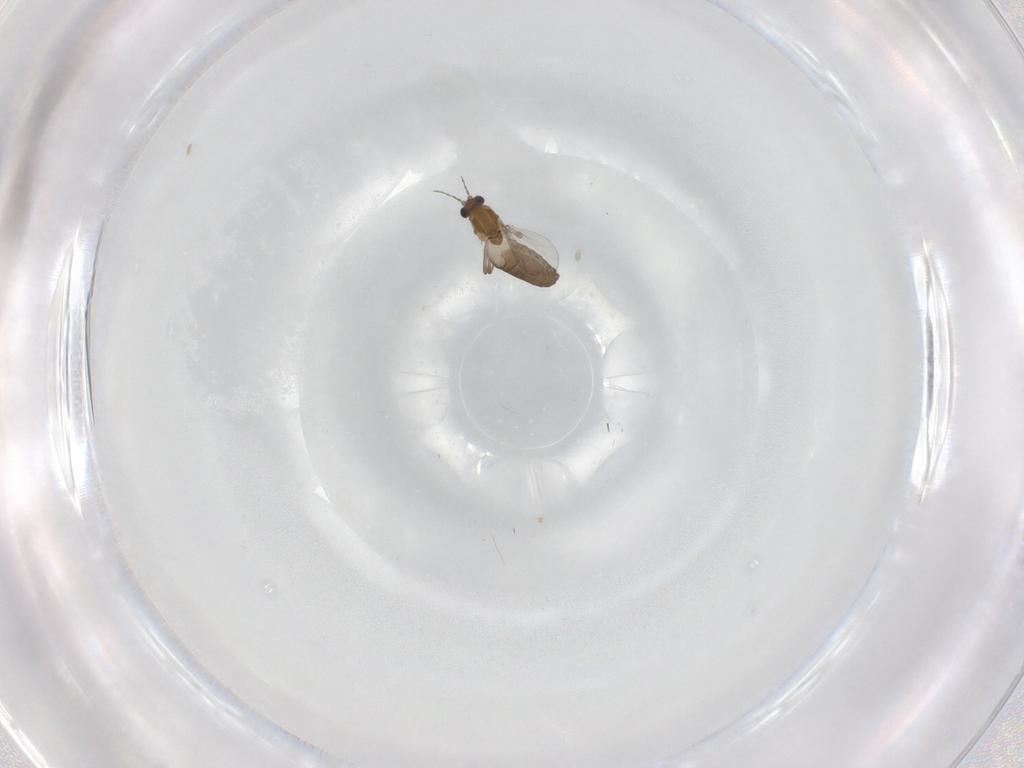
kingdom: Animalia
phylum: Arthropoda
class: Insecta
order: Diptera
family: Chironomidae
